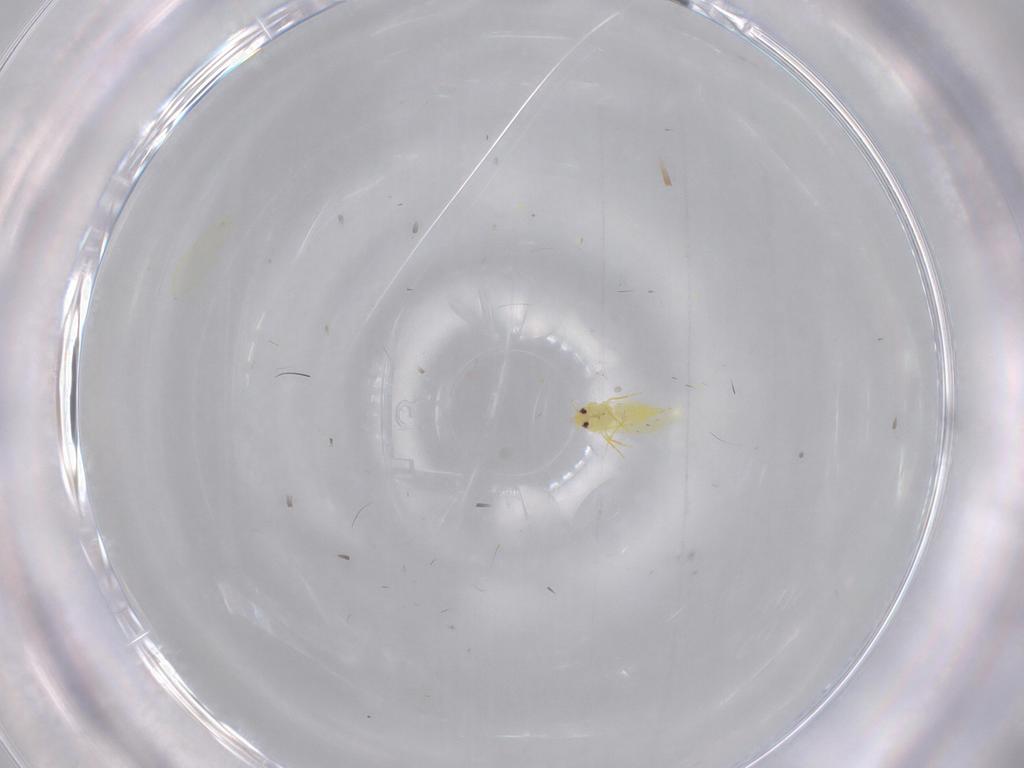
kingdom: Animalia
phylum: Arthropoda
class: Insecta
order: Hemiptera
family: Aleyrodidae
